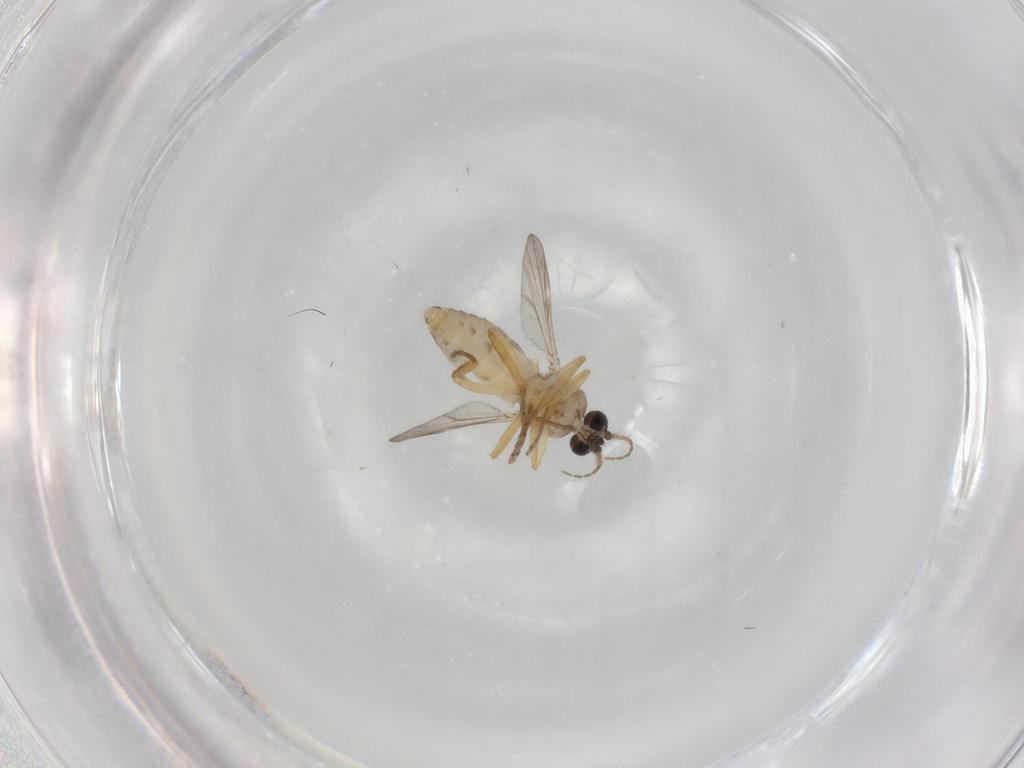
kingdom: Animalia
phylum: Arthropoda
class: Insecta
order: Diptera
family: Ceratopogonidae
